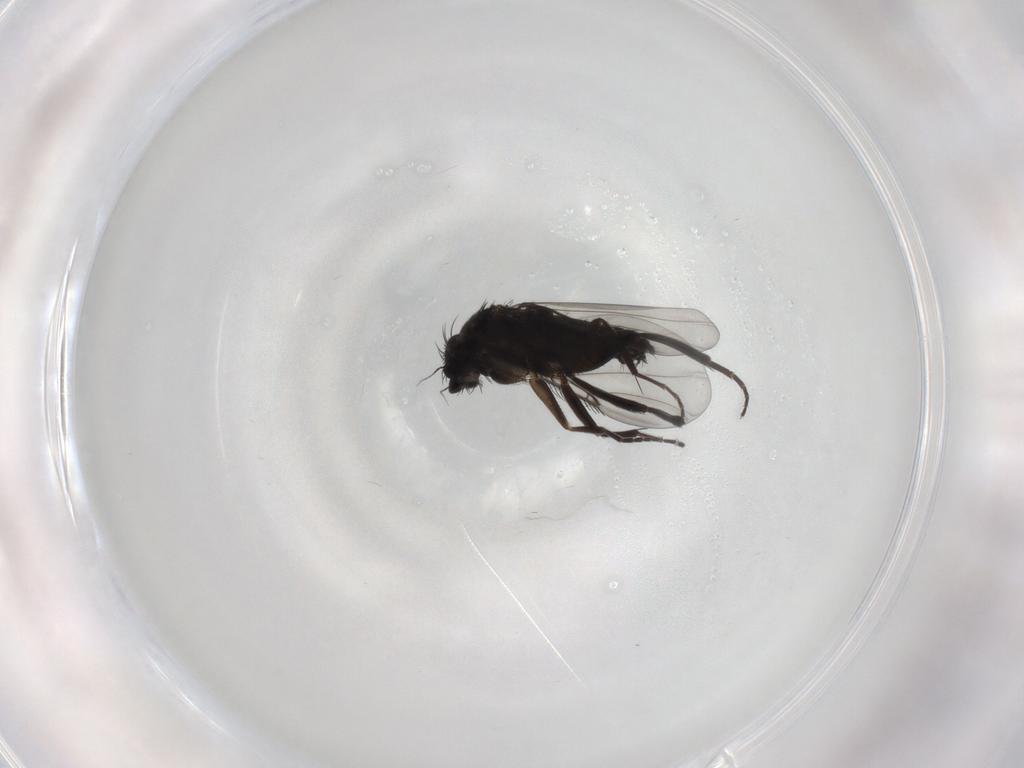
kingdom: Animalia
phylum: Arthropoda
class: Insecta
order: Diptera
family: Phoridae
